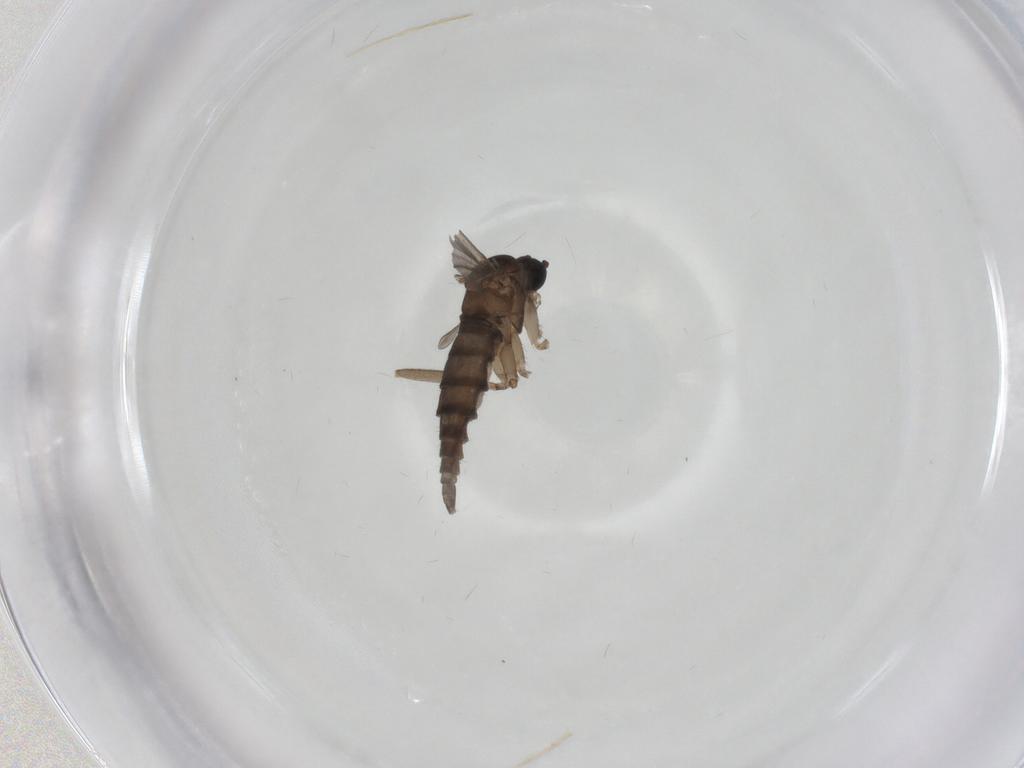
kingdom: Animalia
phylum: Arthropoda
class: Insecta
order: Diptera
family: Sciaridae
